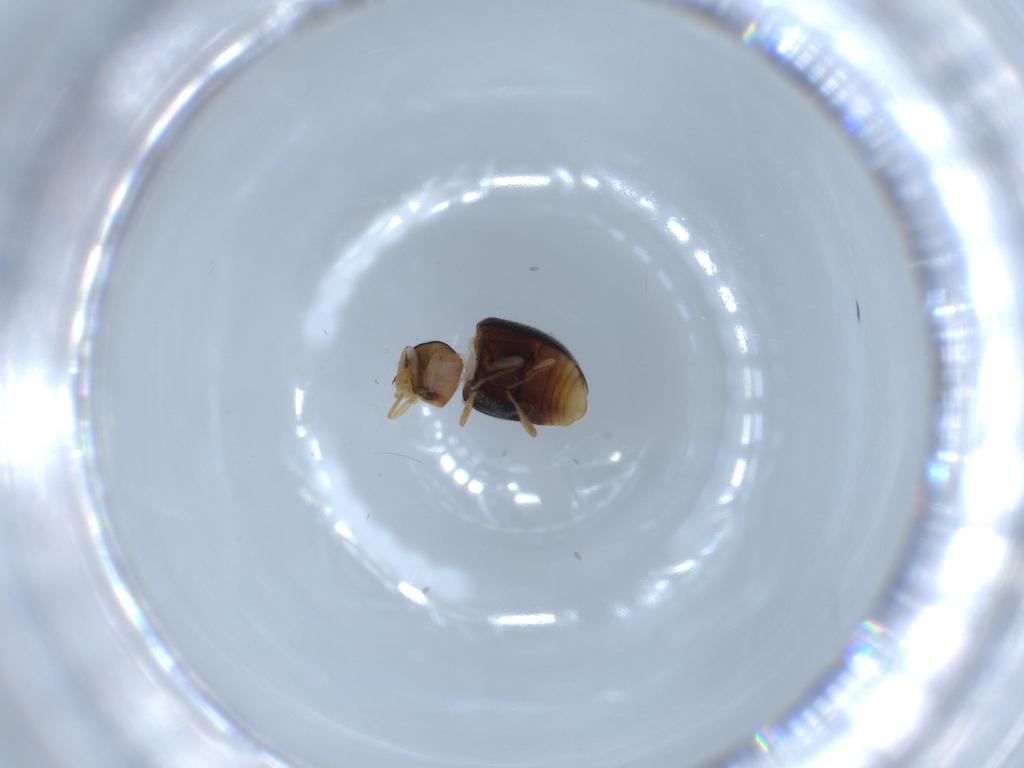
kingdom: Animalia
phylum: Arthropoda
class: Insecta
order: Coleoptera
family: Coccinellidae
